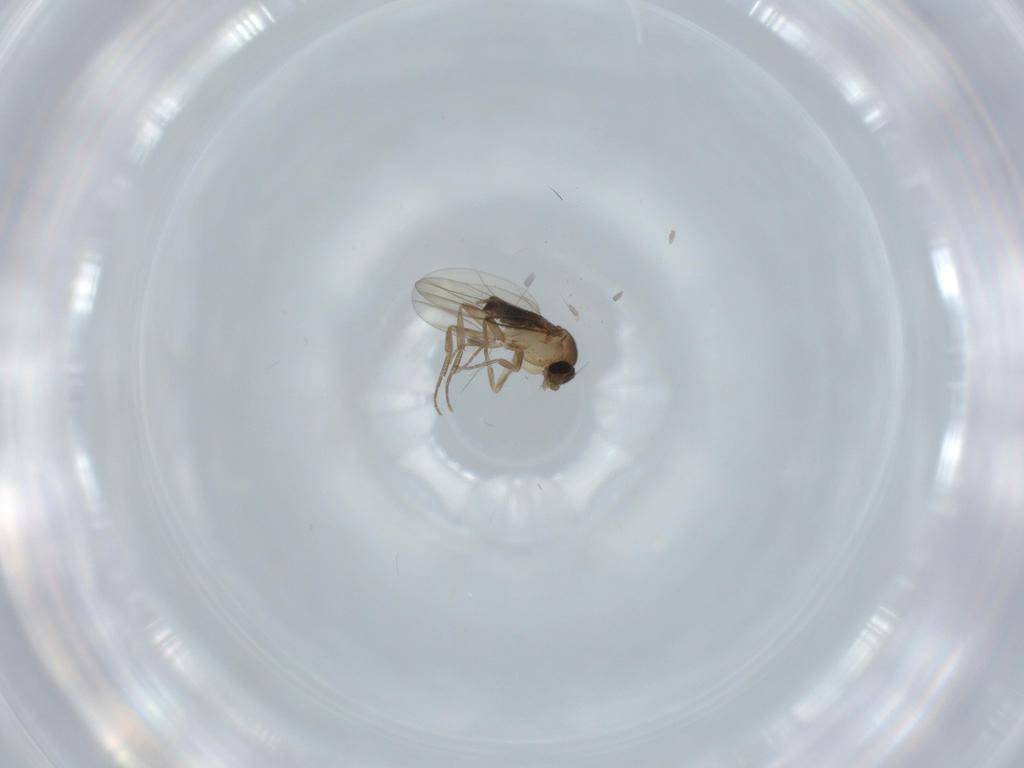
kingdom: Animalia
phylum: Arthropoda
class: Insecta
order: Diptera
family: Phoridae
